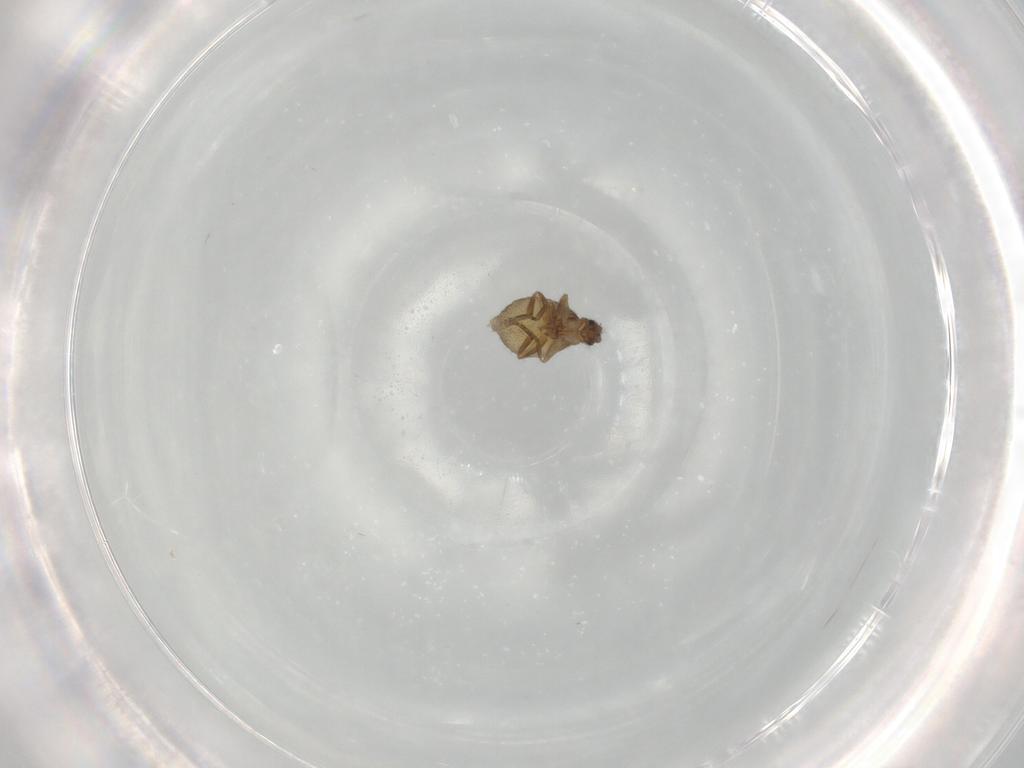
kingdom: Animalia
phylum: Arthropoda
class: Insecta
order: Diptera
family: Phoridae
